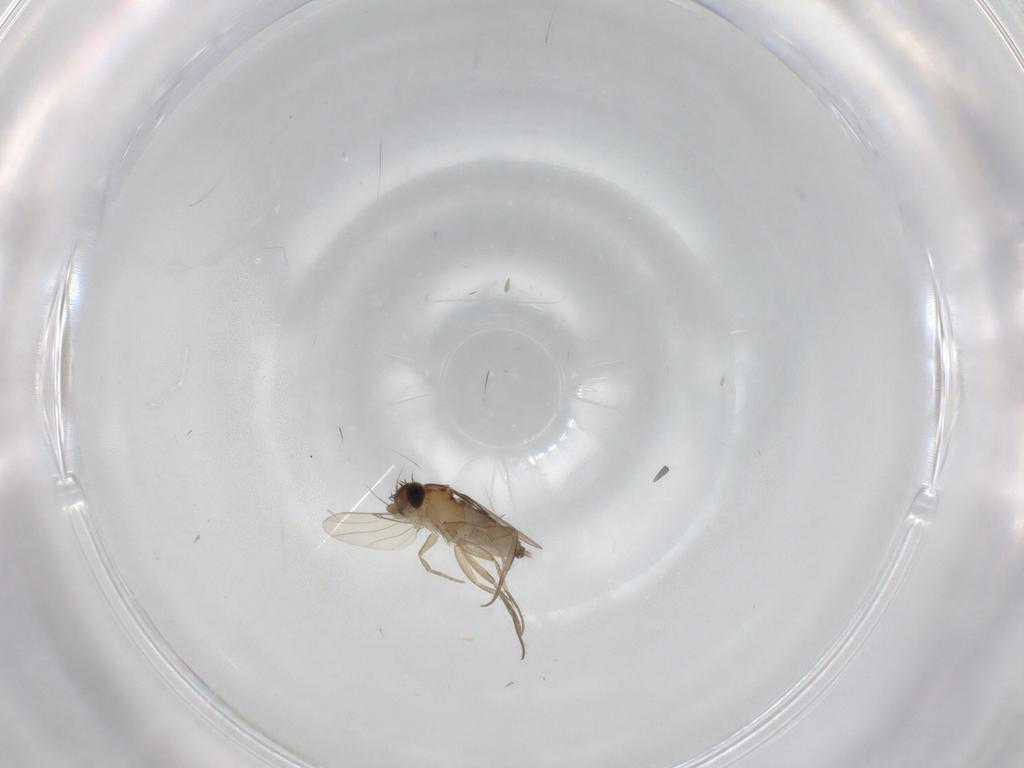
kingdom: Animalia
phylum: Arthropoda
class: Insecta
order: Diptera
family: Phoridae
